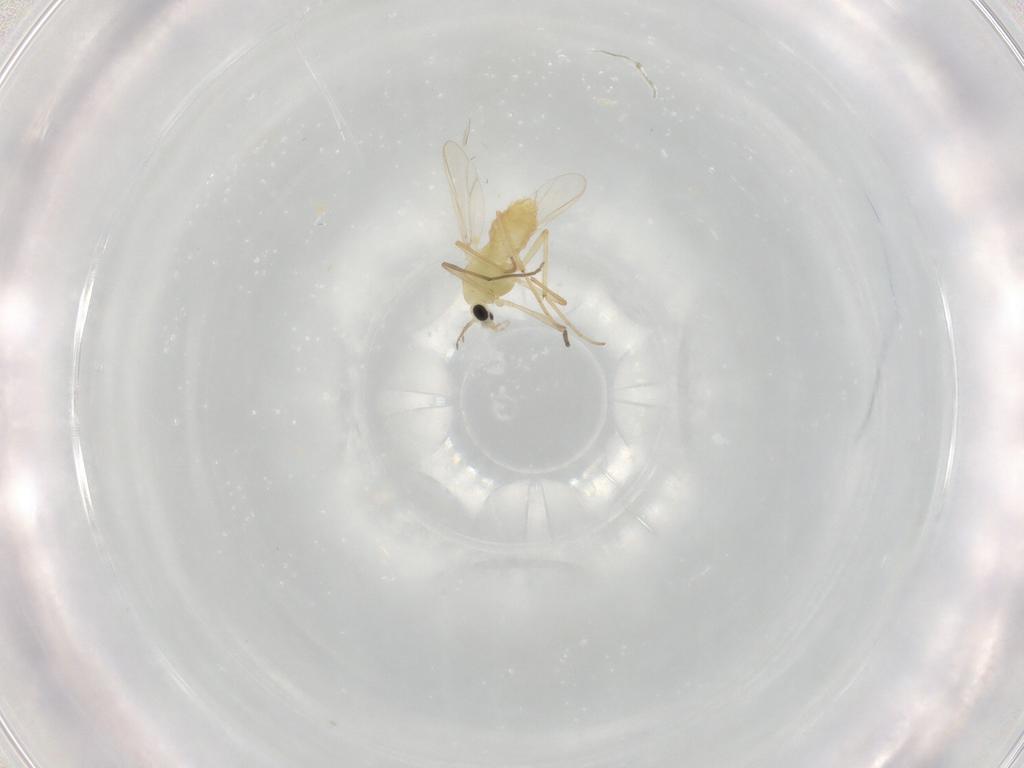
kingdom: Animalia
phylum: Arthropoda
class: Insecta
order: Diptera
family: Chironomidae
